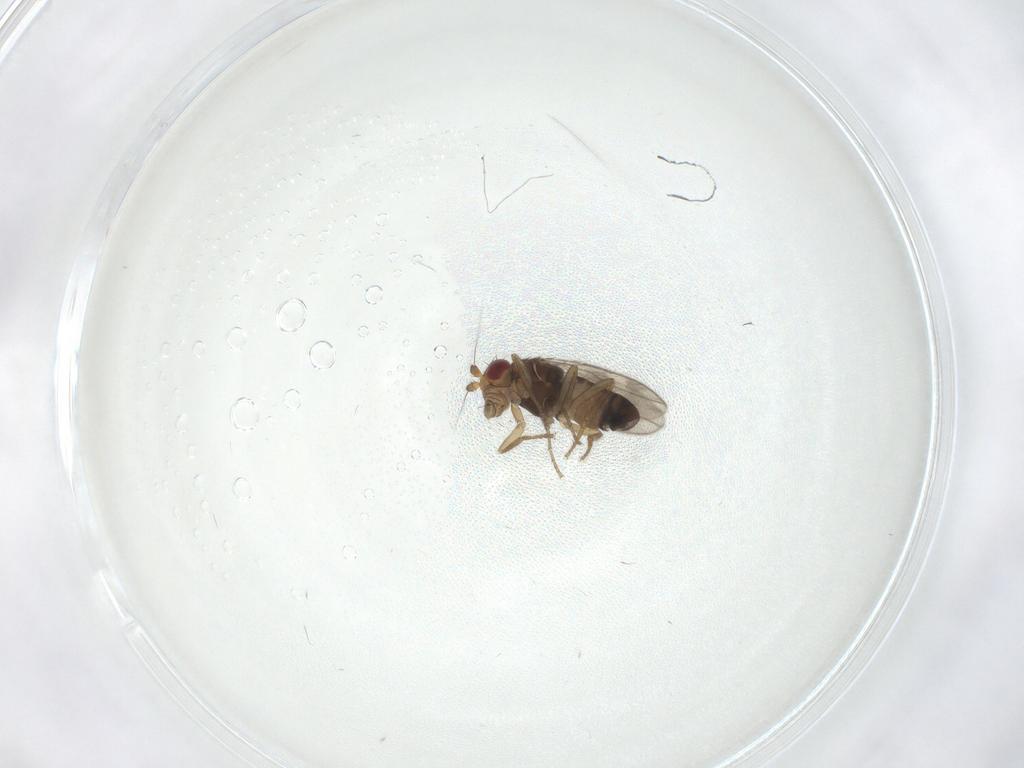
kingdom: Animalia
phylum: Arthropoda
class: Insecta
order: Diptera
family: Sphaeroceridae
